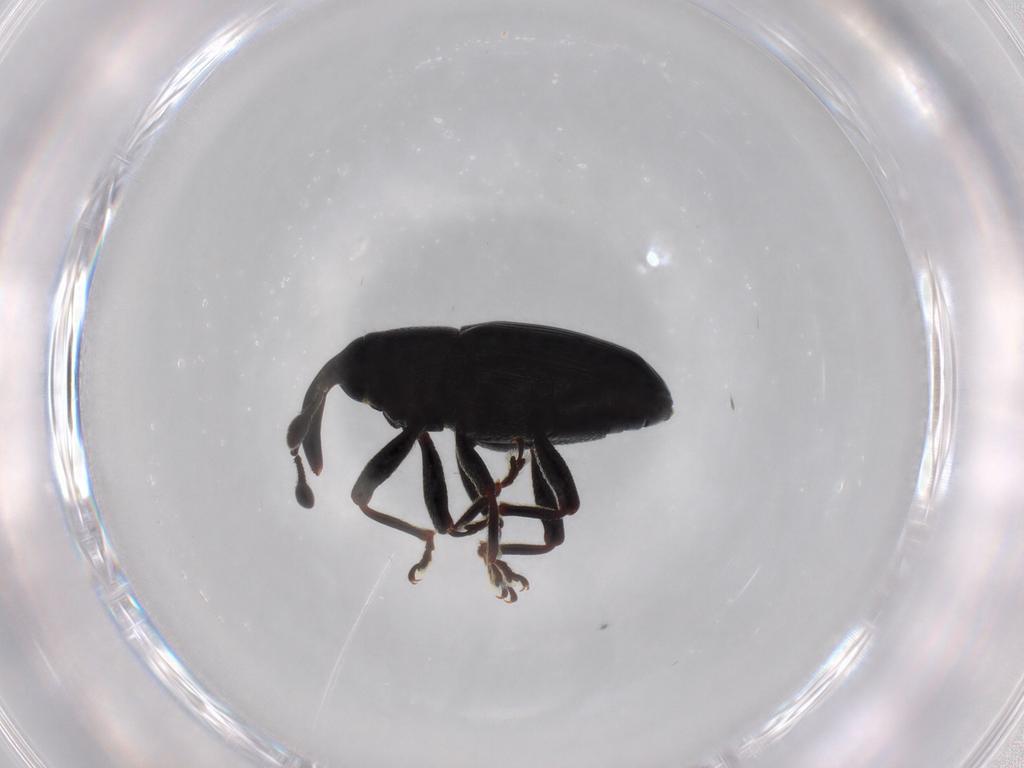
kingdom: Animalia
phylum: Arthropoda
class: Insecta
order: Coleoptera
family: Curculionidae
